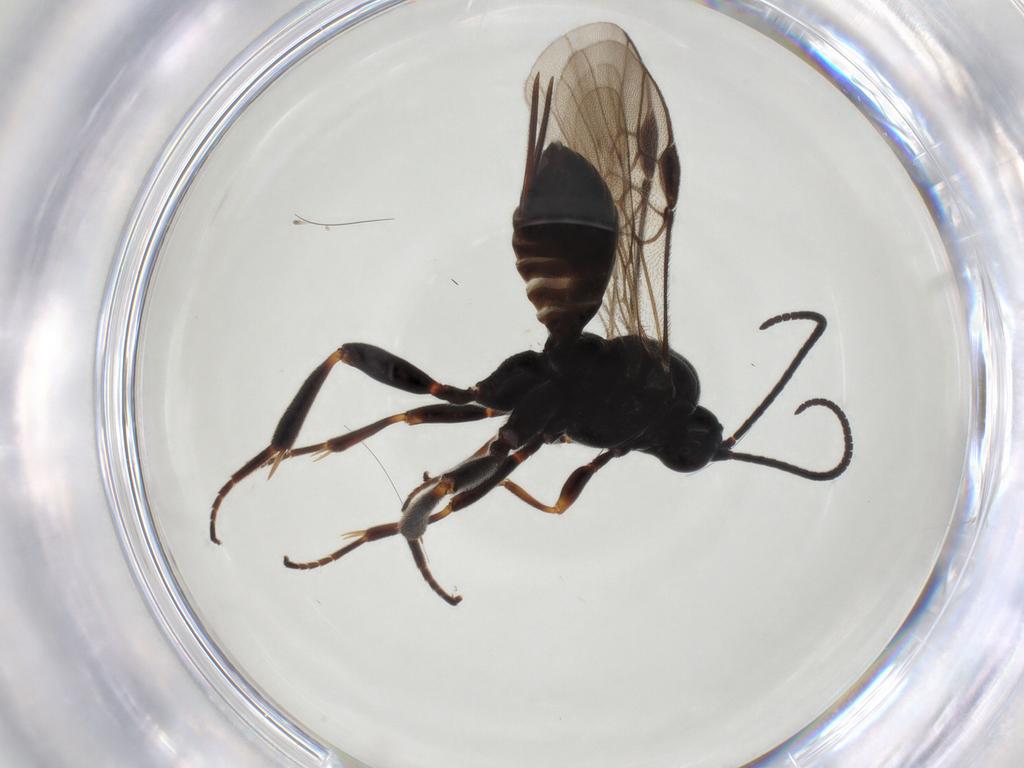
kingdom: Animalia
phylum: Arthropoda
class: Insecta
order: Hymenoptera
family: Braconidae
